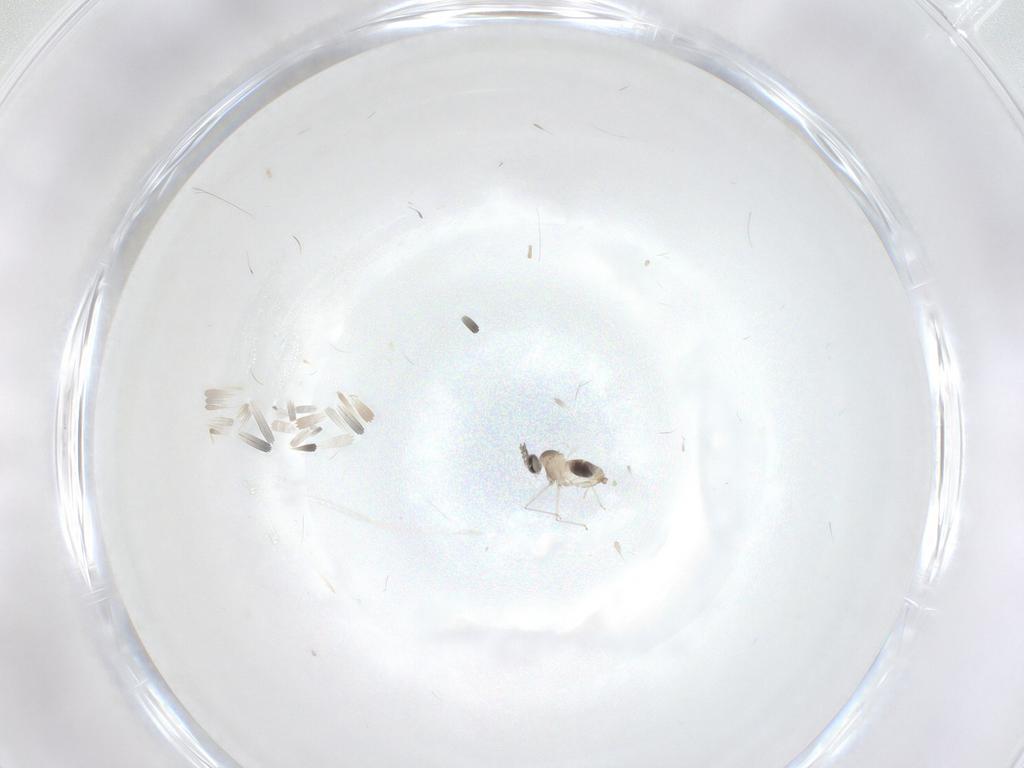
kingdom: Animalia
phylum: Arthropoda
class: Insecta
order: Diptera
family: Cecidomyiidae
